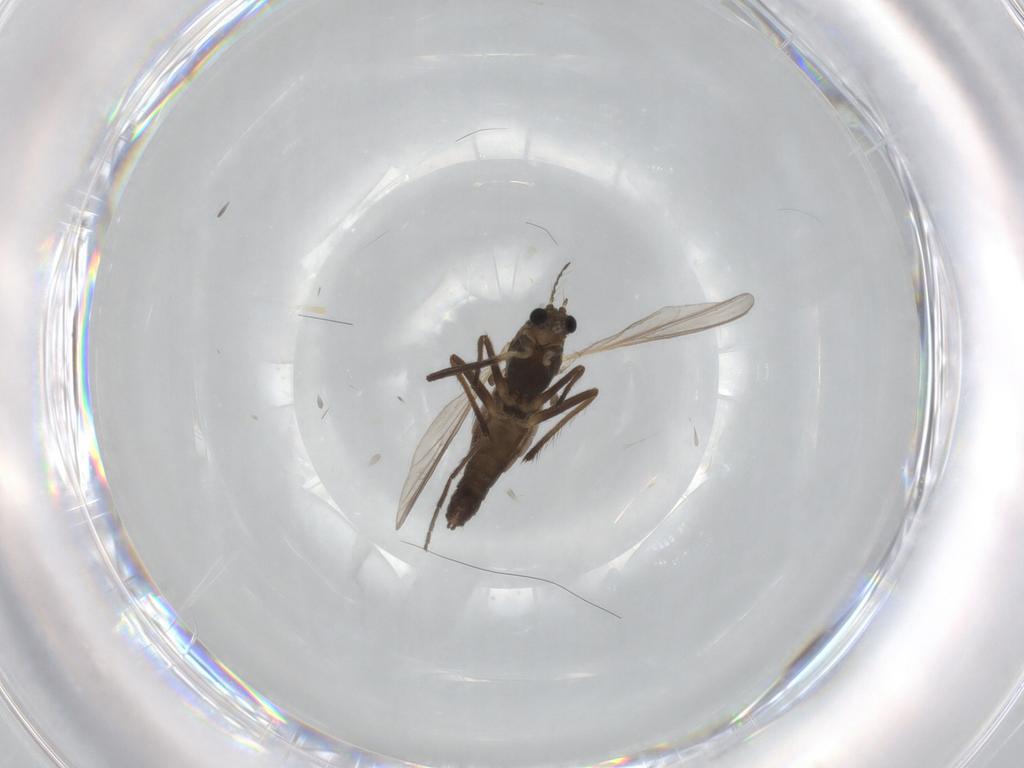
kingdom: Animalia
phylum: Arthropoda
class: Insecta
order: Diptera
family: Chironomidae
